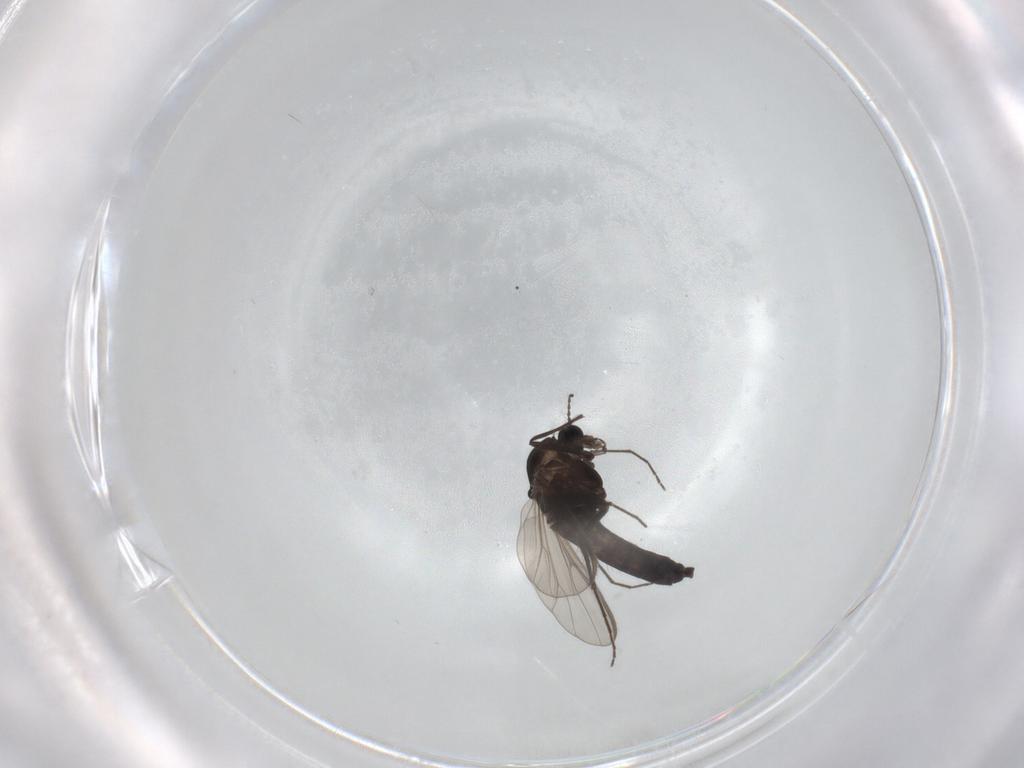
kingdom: Animalia
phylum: Arthropoda
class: Insecta
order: Diptera
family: Chironomidae
